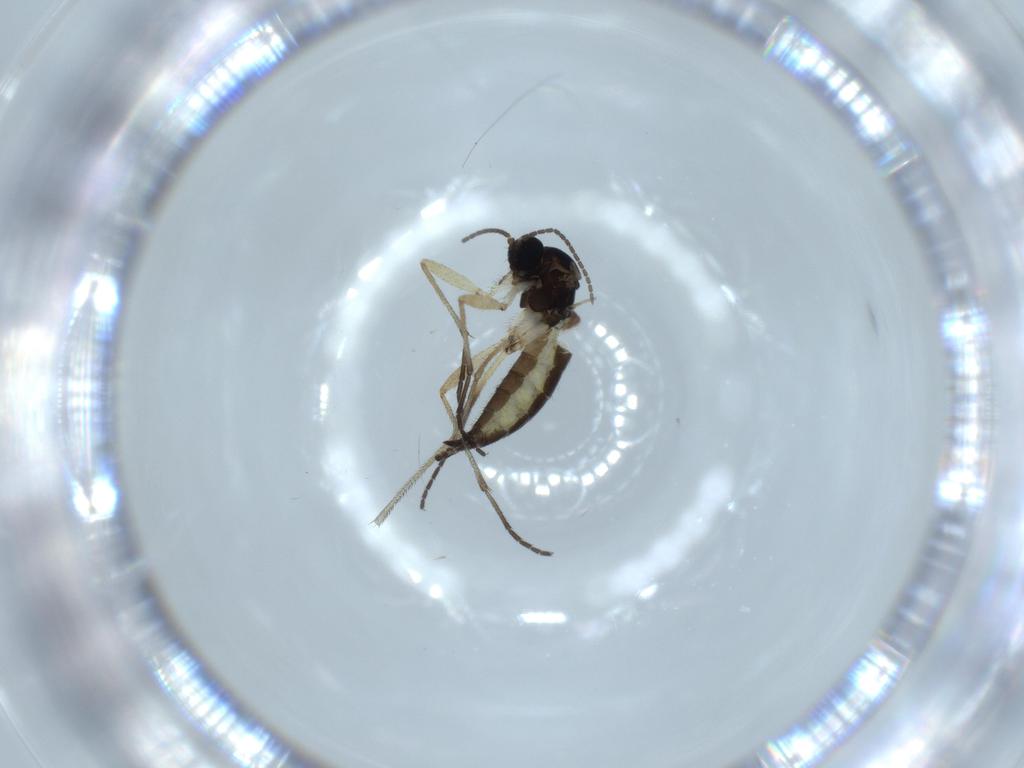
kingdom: Animalia
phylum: Arthropoda
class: Insecta
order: Diptera
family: Sciaridae
